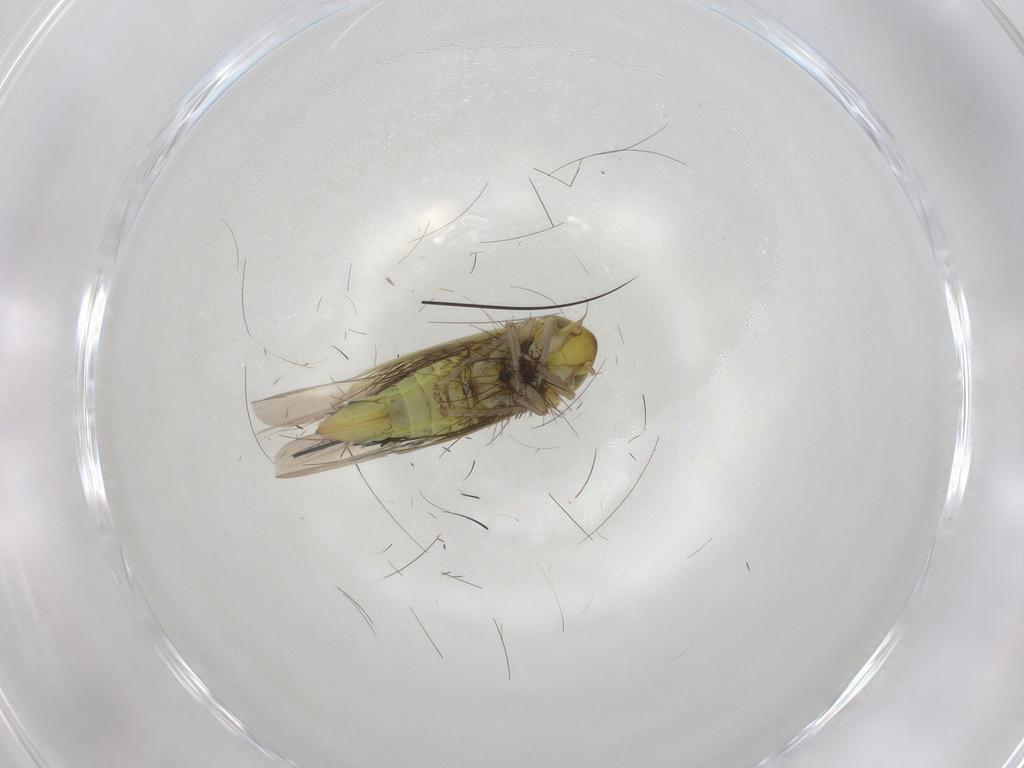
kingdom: Animalia
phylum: Arthropoda
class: Insecta
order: Hemiptera
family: Cicadellidae
